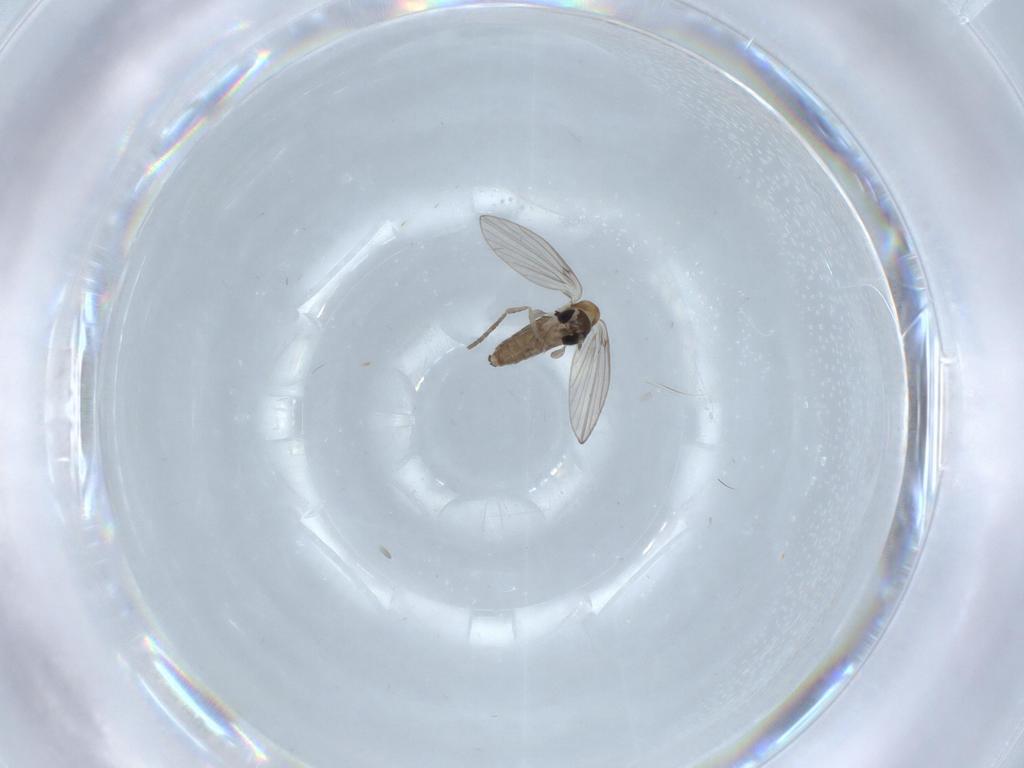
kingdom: Animalia
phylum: Arthropoda
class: Insecta
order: Diptera
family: Psychodidae
